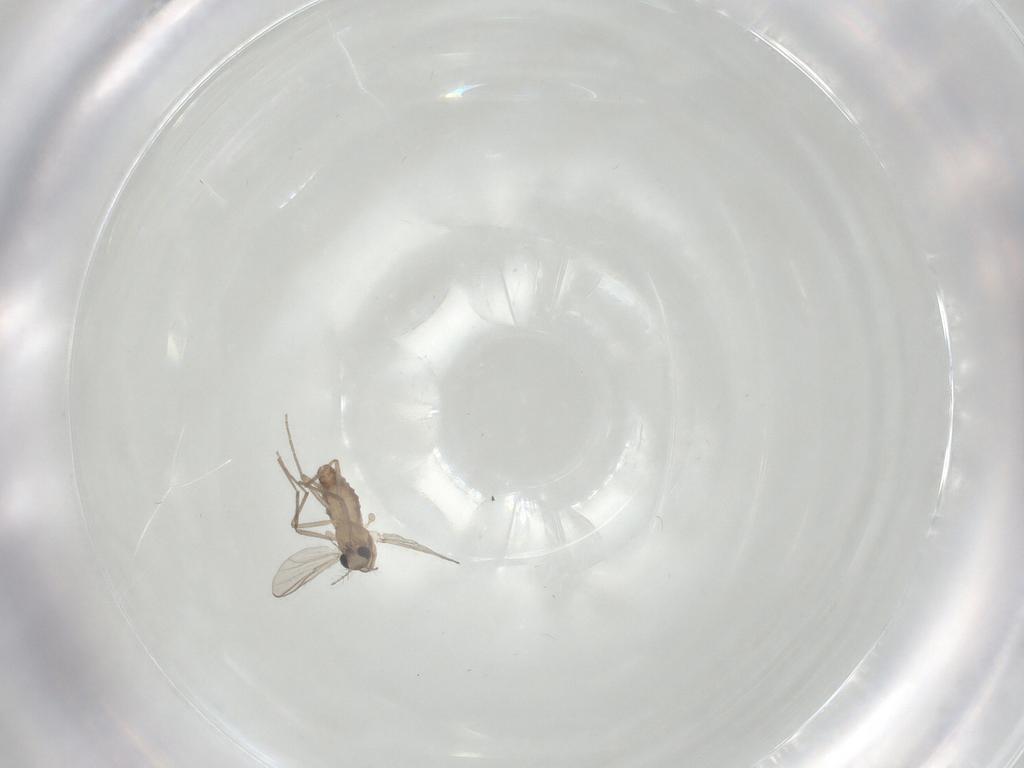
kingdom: Animalia
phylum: Arthropoda
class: Insecta
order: Diptera
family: Chironomidae
